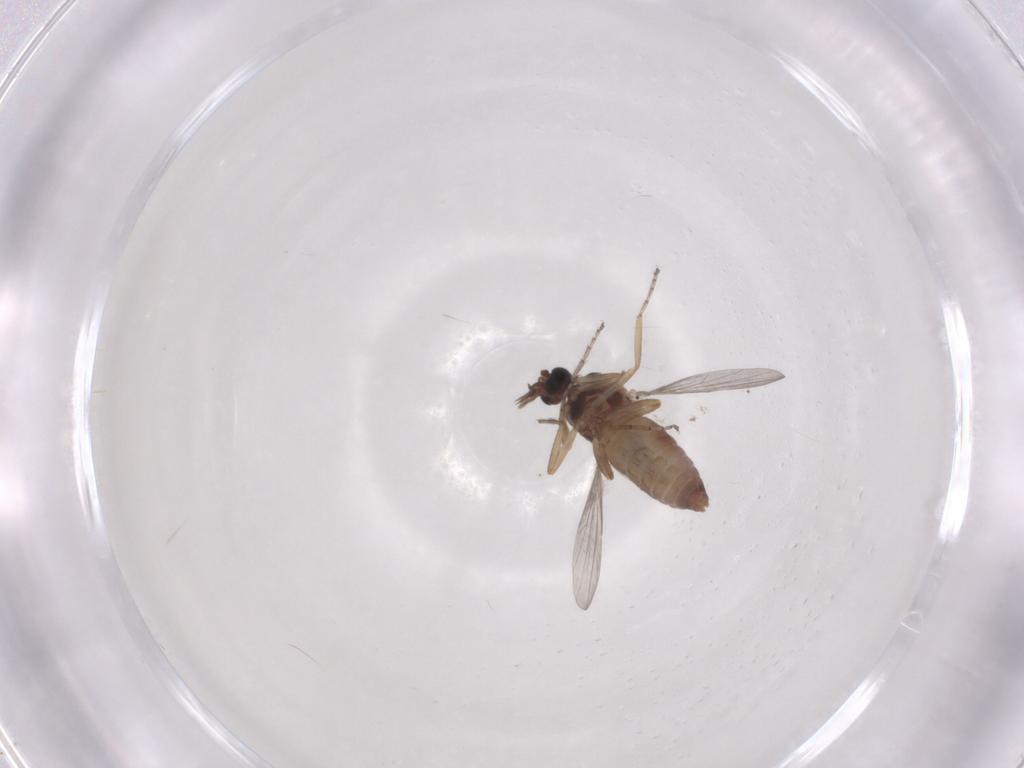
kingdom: Animalia
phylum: Arthropoda
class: Insecta
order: Diptera
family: Ceratopogonidae
